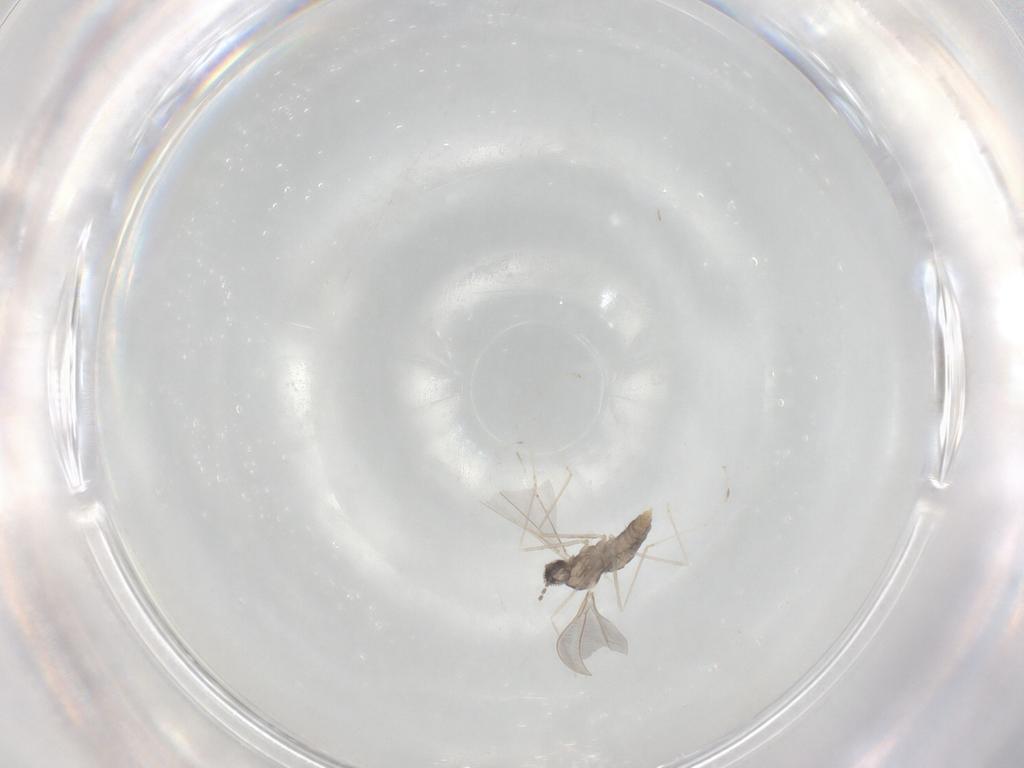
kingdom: Animalia
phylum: Arthropoda
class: Insecta
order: Diptera
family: Cecidomyiidae
